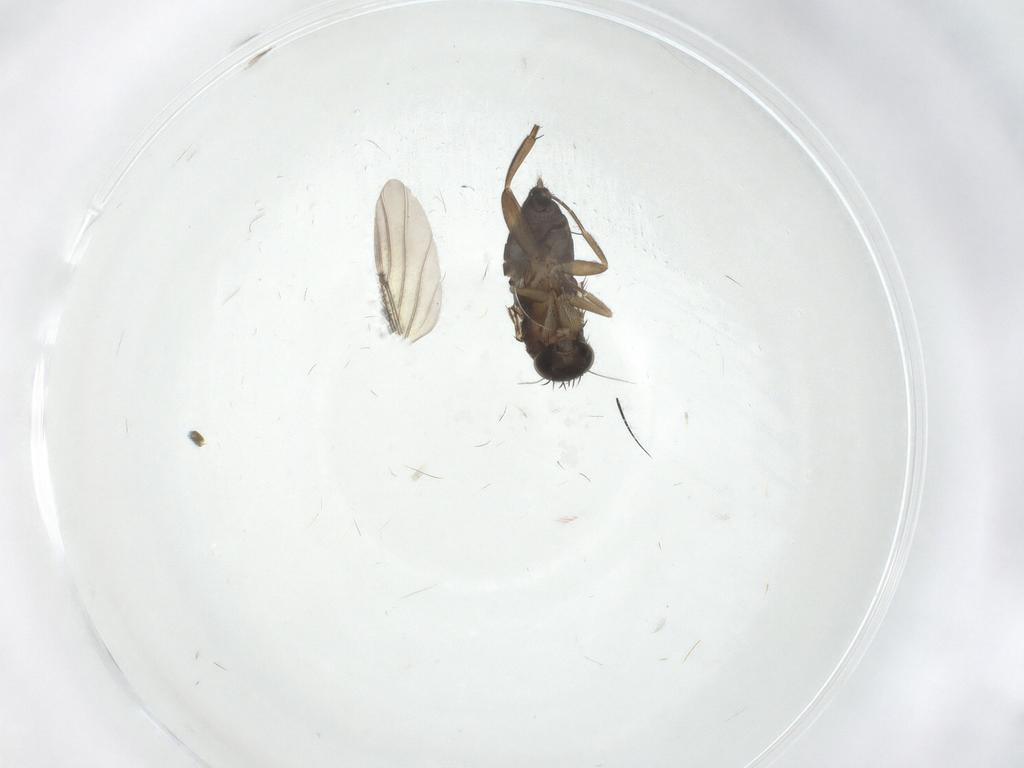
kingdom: Animalia
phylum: Arthropoda
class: Insecta
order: Diptera
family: Phoridae
